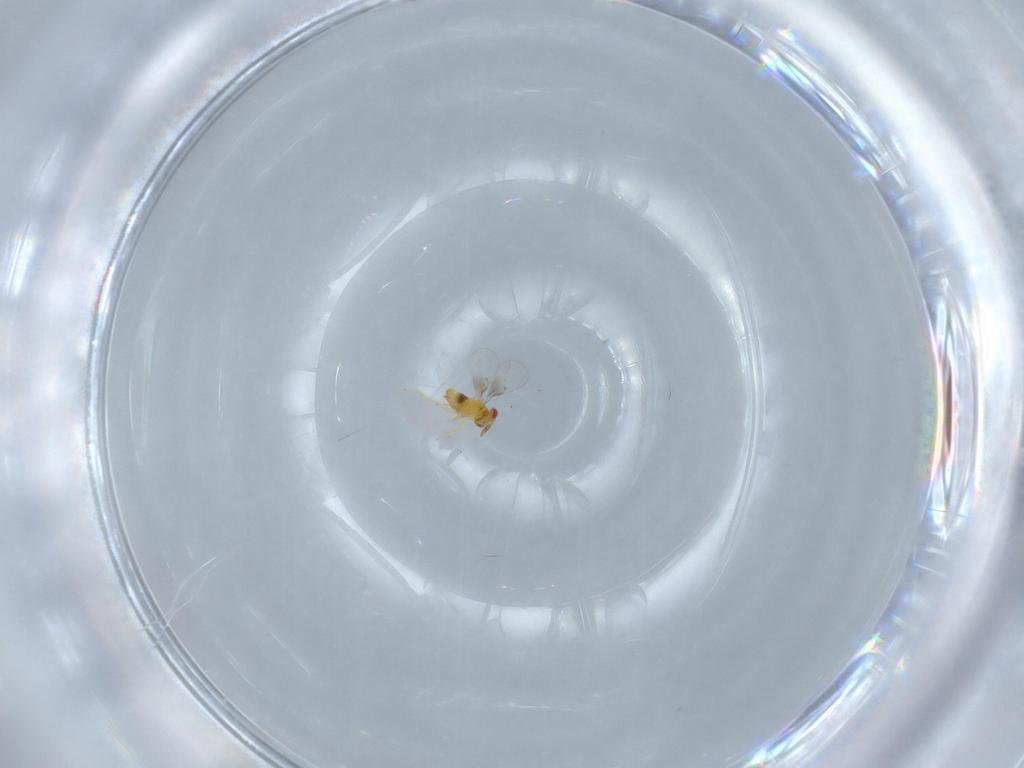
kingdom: Animalia
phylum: Arthropoda
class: Insecta
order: Hymenoptera
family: Trichogrammatidae
